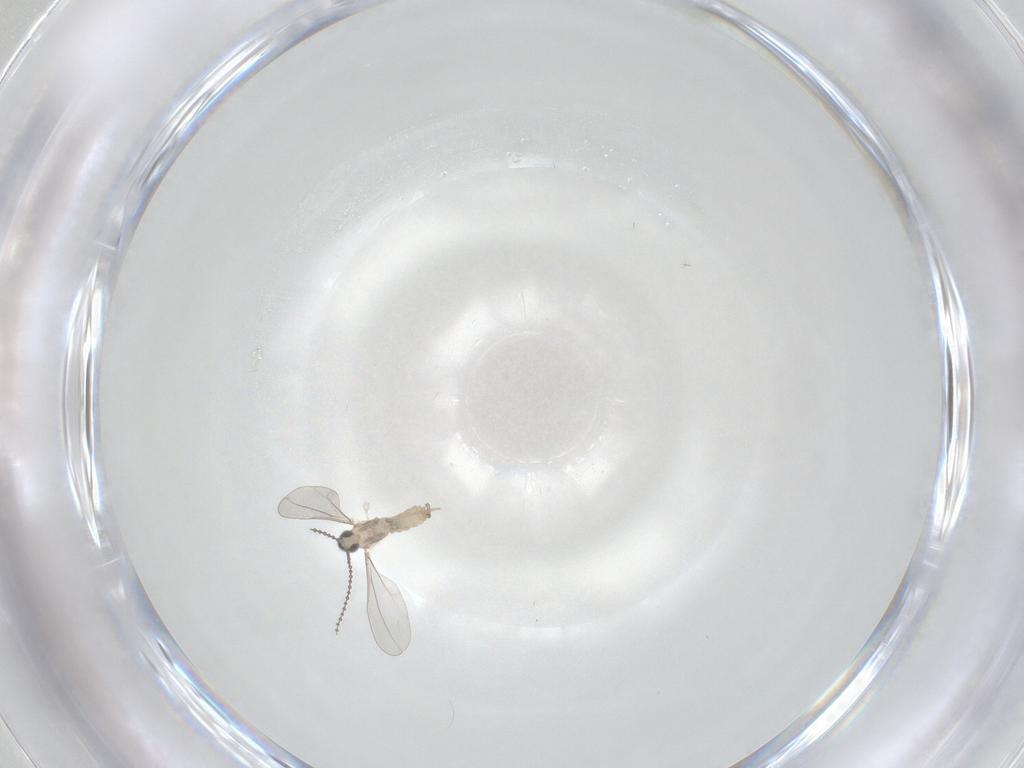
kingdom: Animalia
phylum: Arthropoda
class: Insecta
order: Diptera
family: Cecidomyiidae
